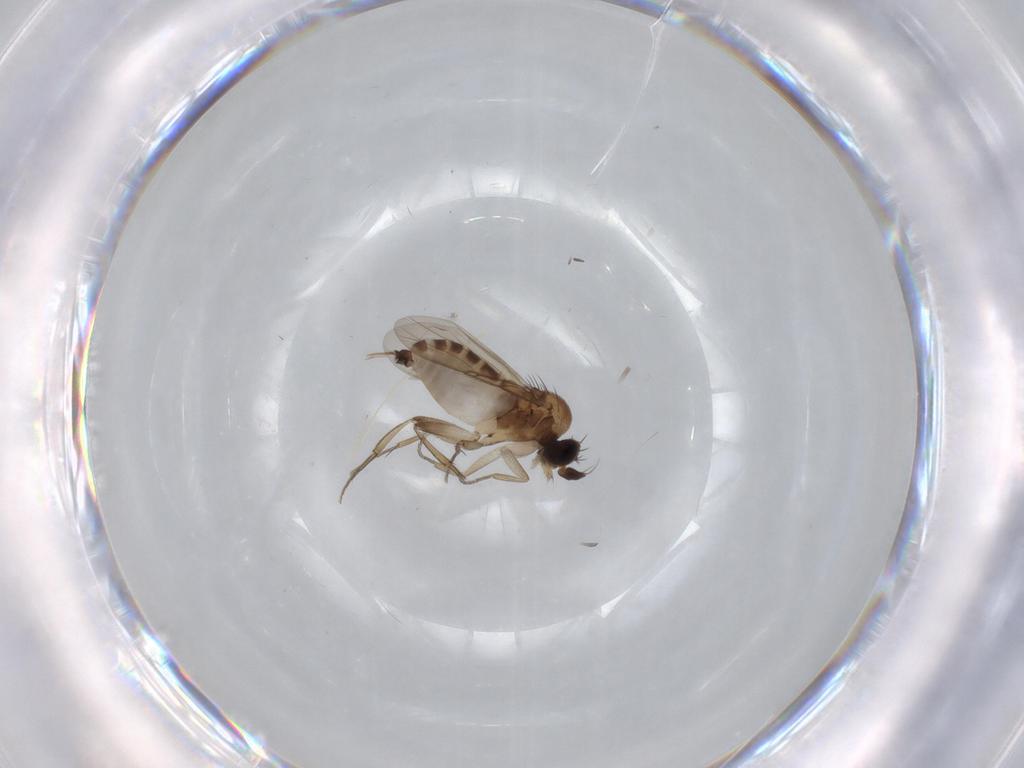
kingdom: Animalia
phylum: Arthropoda
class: Insecta
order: Diptera
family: Phoridae
